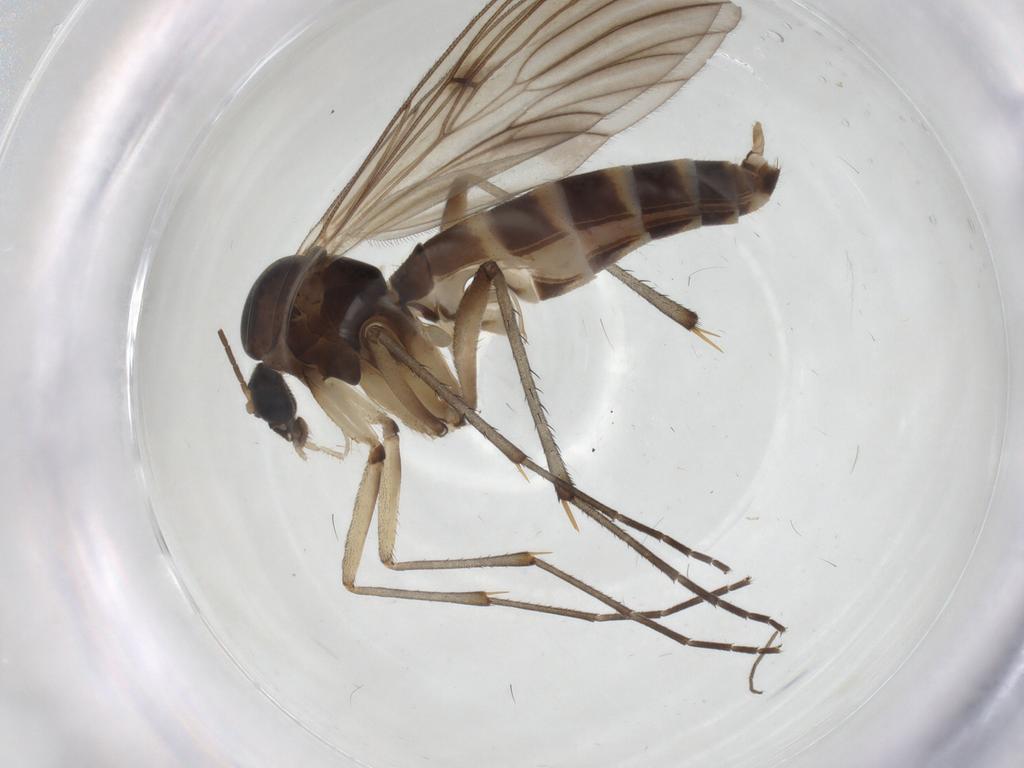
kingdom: Animalia
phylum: Arthropoda
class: Insecta
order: Diptera
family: Mycetophilidae
